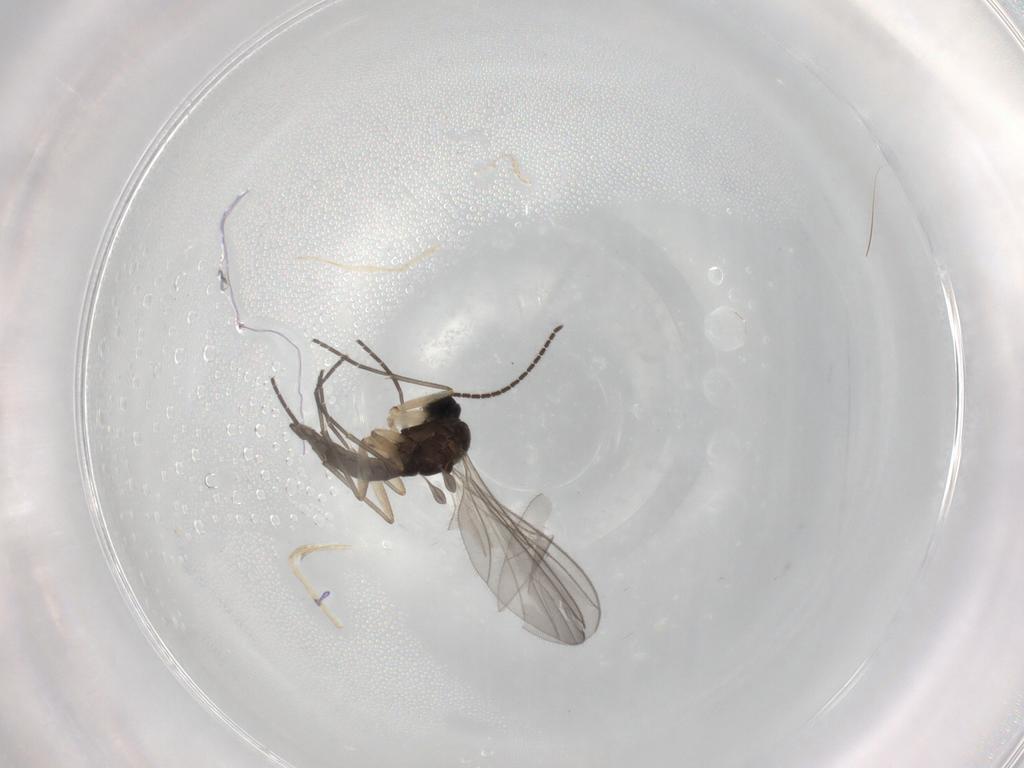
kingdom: Animalia
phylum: Arthropoda
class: Insecta
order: Diptera
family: Sciaridae
